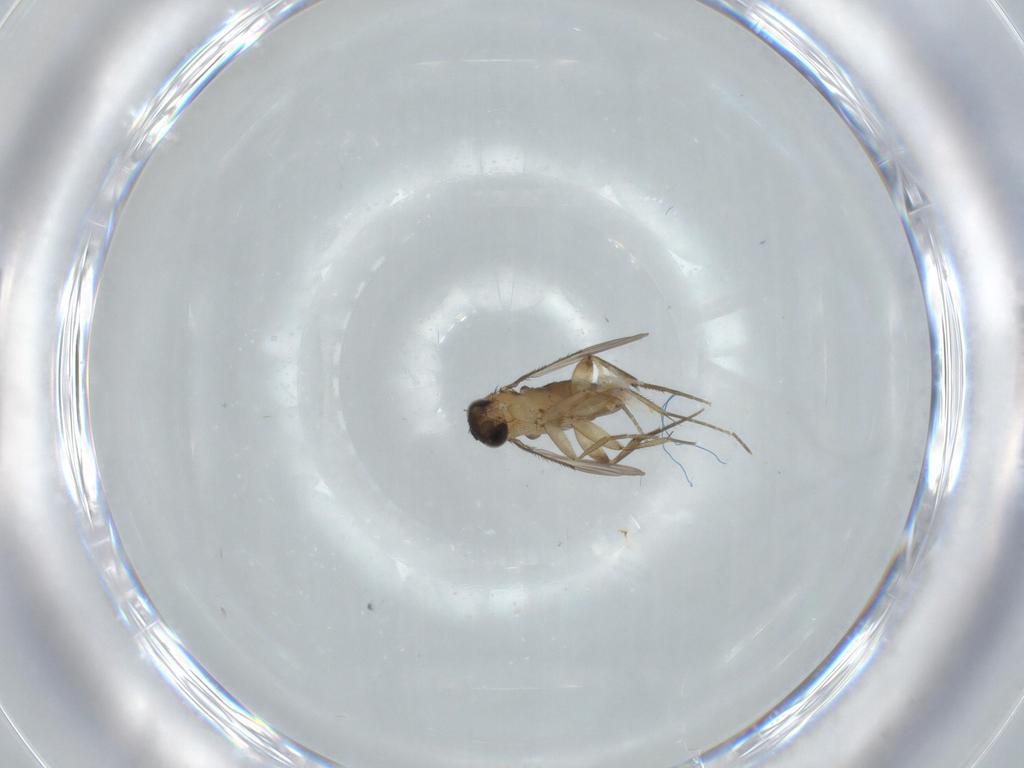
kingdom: Animalia
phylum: Arthropoda
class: Insecta
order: Diptera
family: Phoridae
